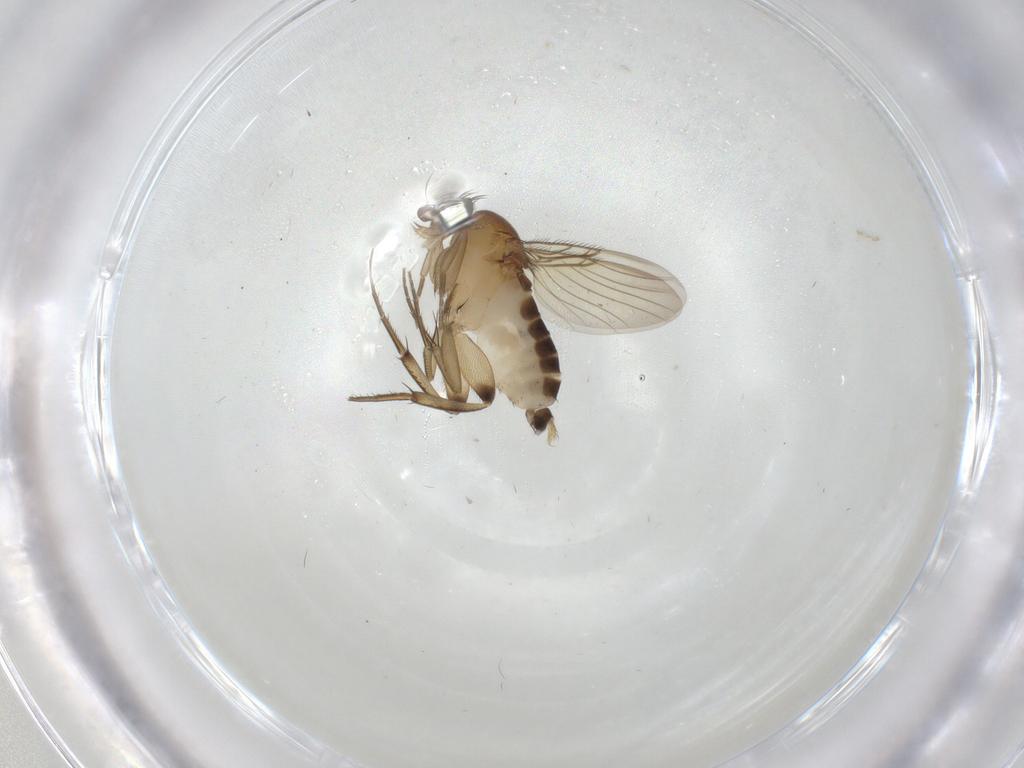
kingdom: Animalia
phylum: Arthropoda
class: Insecta
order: Diptera
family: Phoridae
